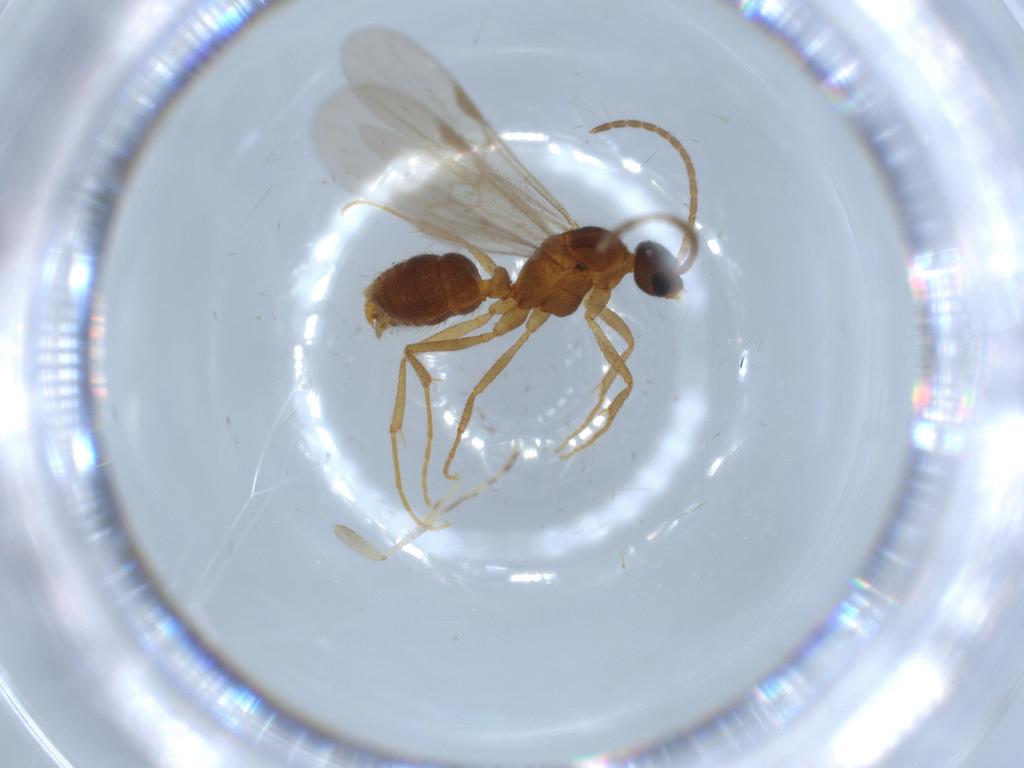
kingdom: Animalia
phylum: Arthropoda
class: Insecta
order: Hymenoptera
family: Formicidae
